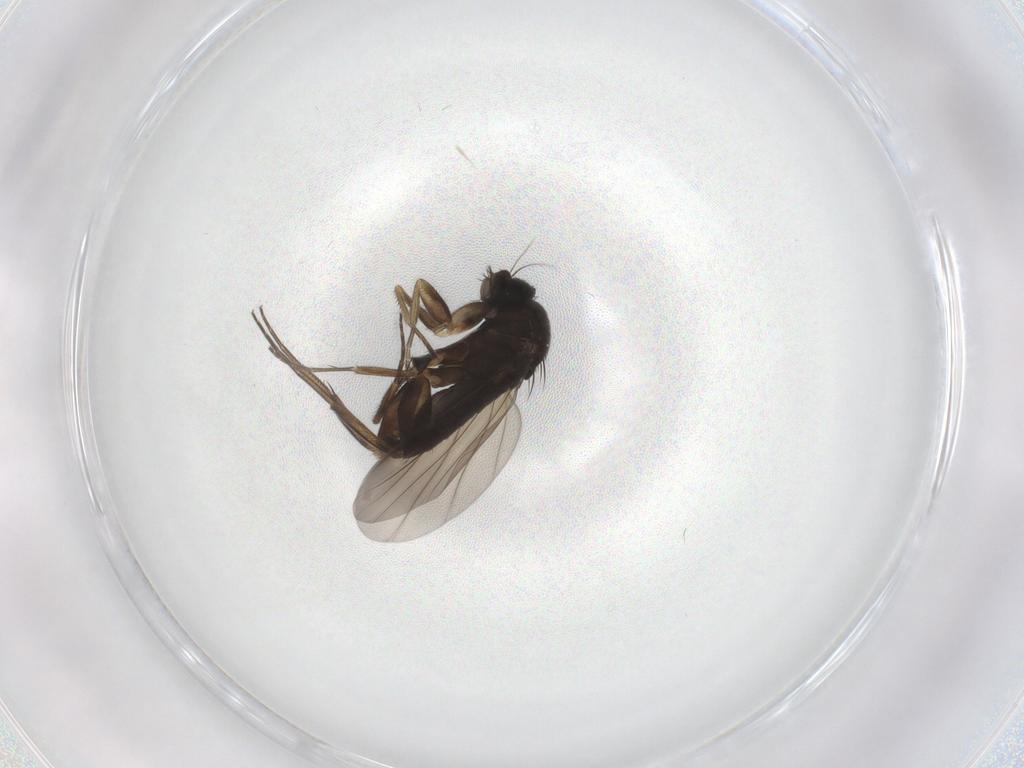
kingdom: Animalia
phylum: Arthropoda
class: Insecta
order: Diptera
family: Phoridae
